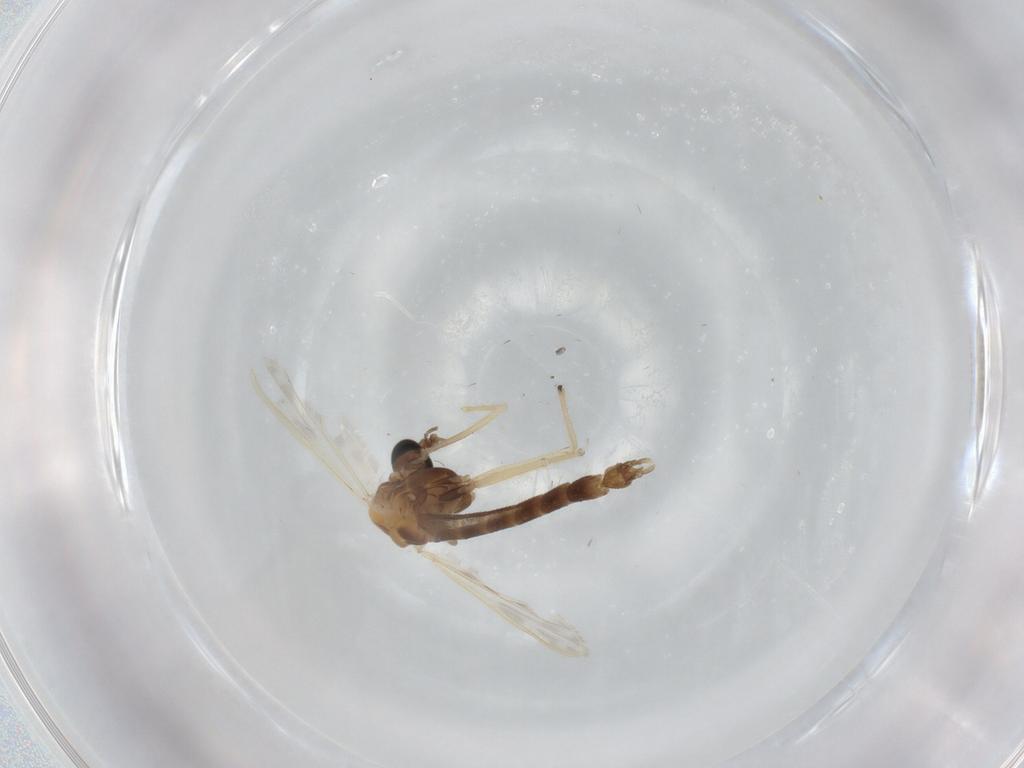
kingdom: Animalia
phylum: Arthropoda
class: Insecta
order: Diptera
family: Chironomidae
